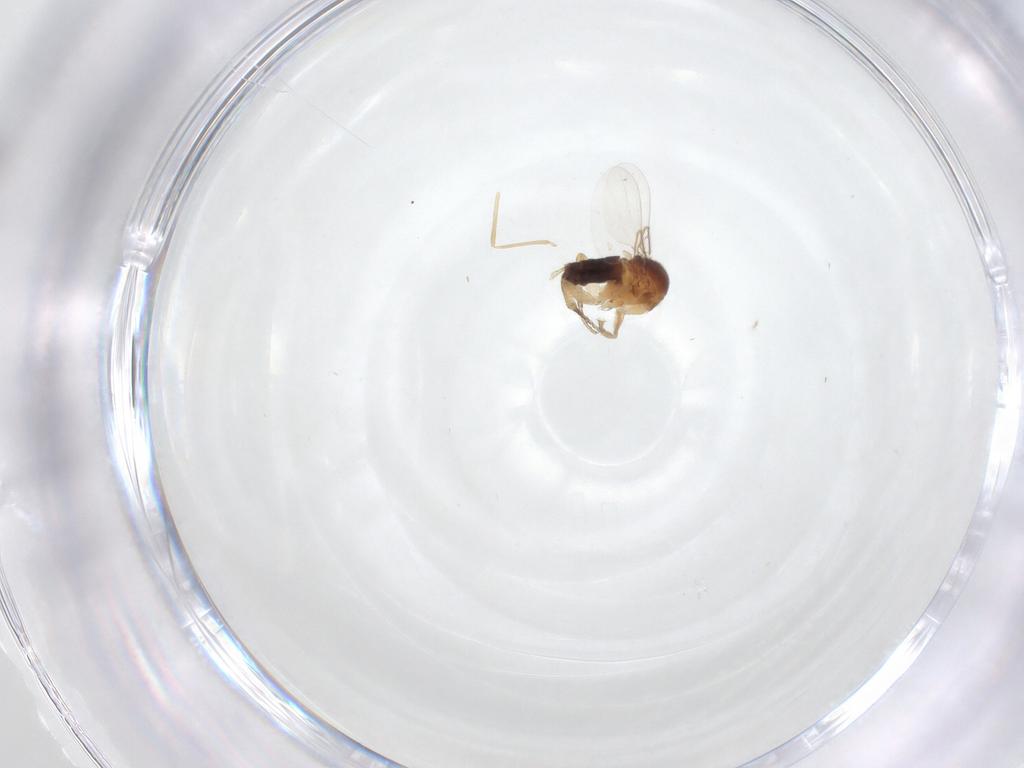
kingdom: Animalia
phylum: Arthropoda
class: Insecta
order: Diptera
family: Cecidomyiidae
